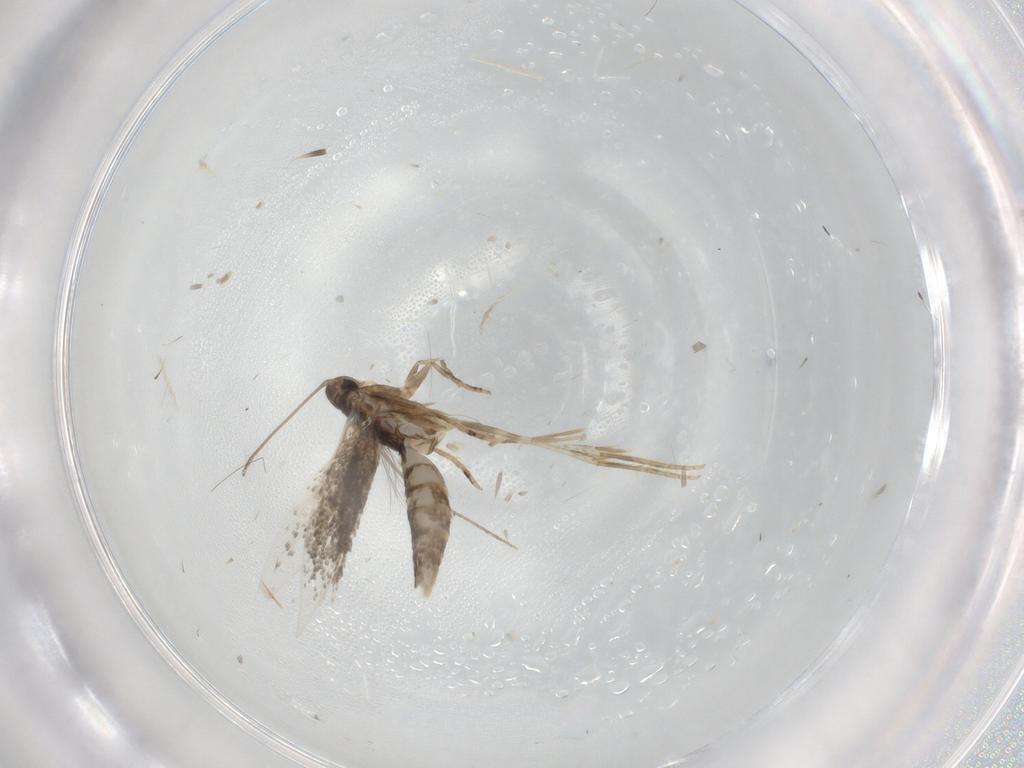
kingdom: Animalia
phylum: Arthropoda
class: Insecta
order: Lepidoptera
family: Elachistidae
